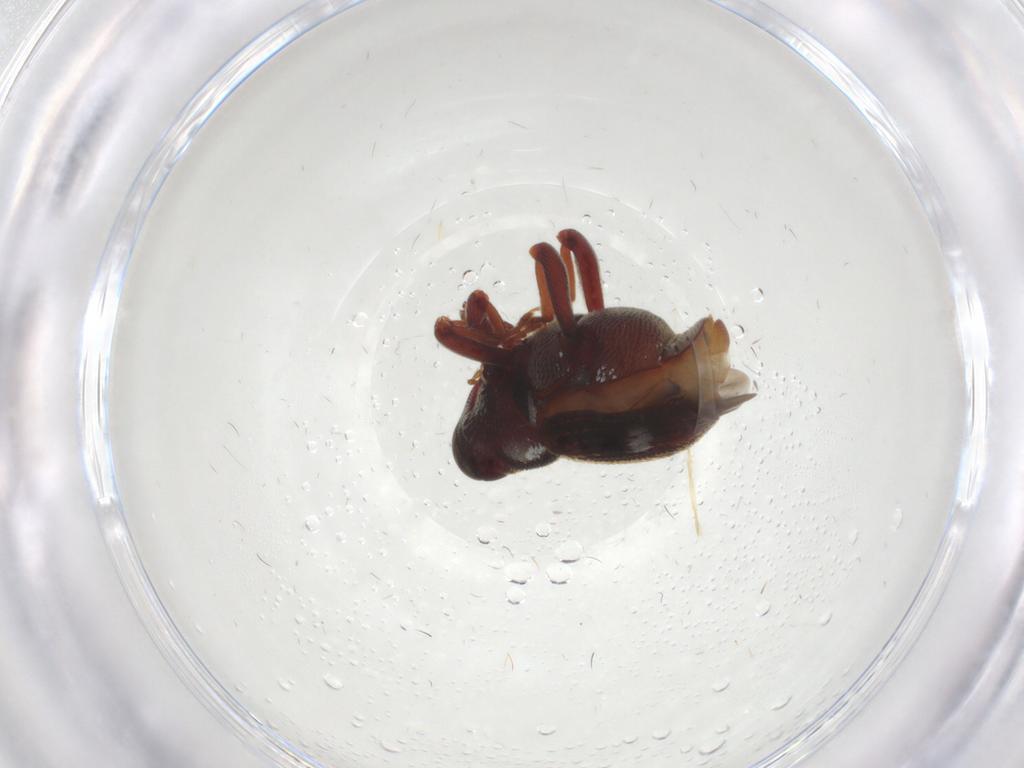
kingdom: Animalia
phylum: Arthropoda
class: Collembola
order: Entomobryomorpha
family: Entomobryidae
